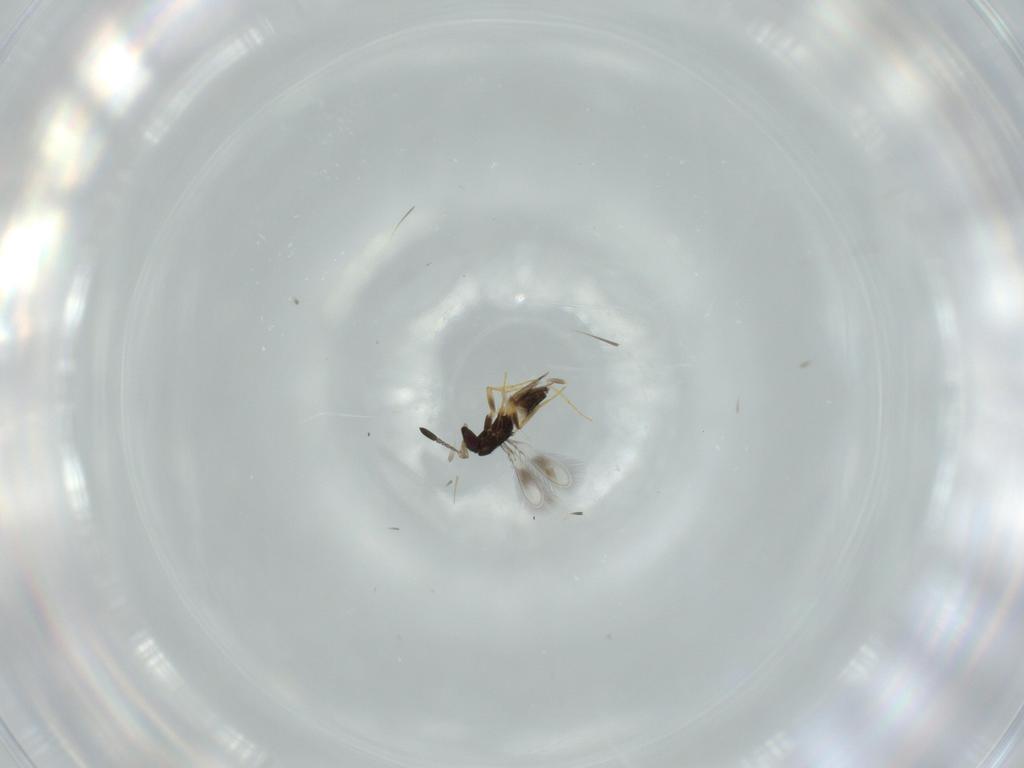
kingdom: Animalia
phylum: Arthropoda
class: Insecta
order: Hymenoptera
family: Mymaridae
